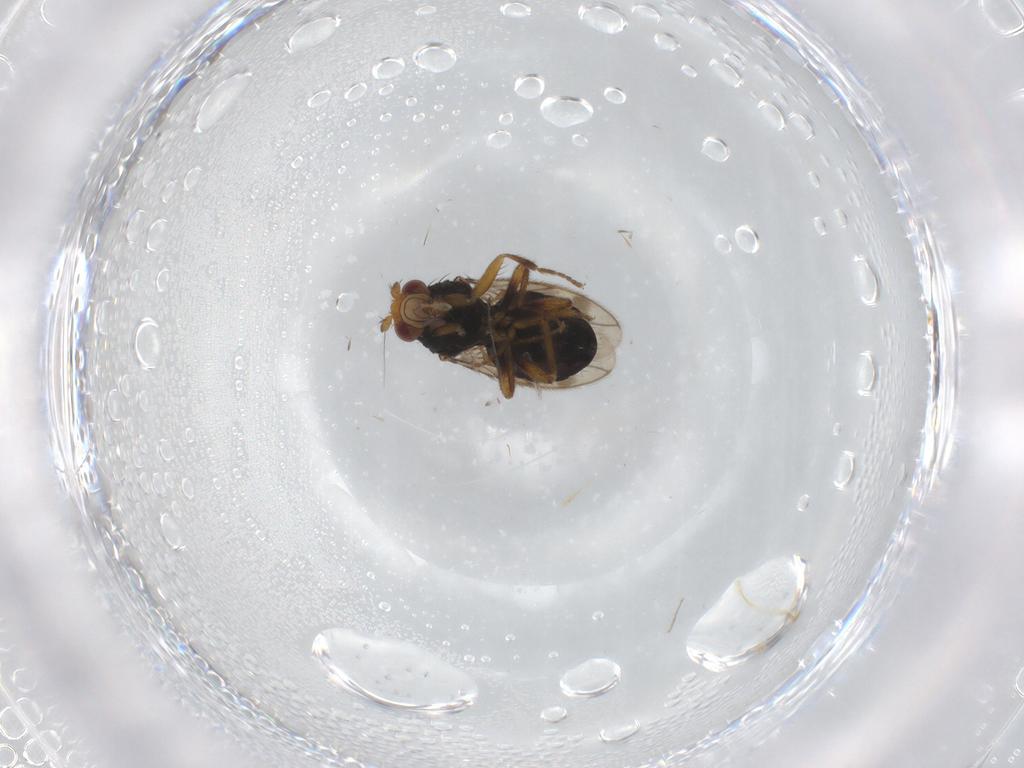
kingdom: Animalia
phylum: Arthropoda
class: Insecta
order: Diptera
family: Sphaeroceridae
